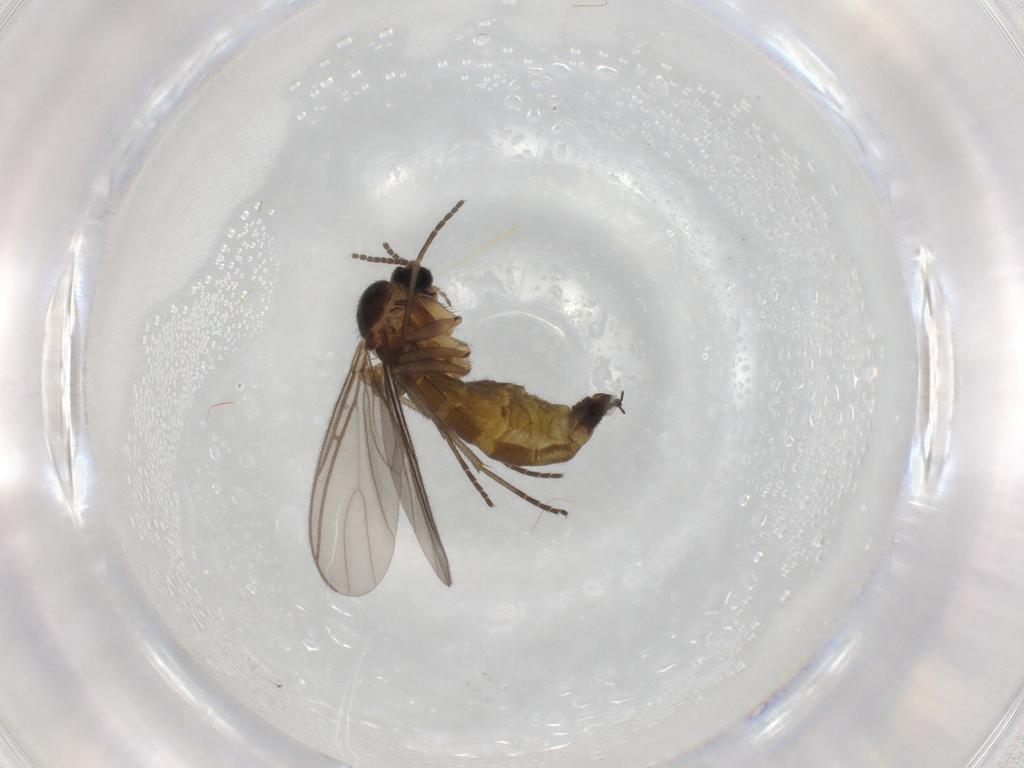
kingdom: Animalia
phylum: Arthropoda
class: Insecta
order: Diptera
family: Sciaridae
